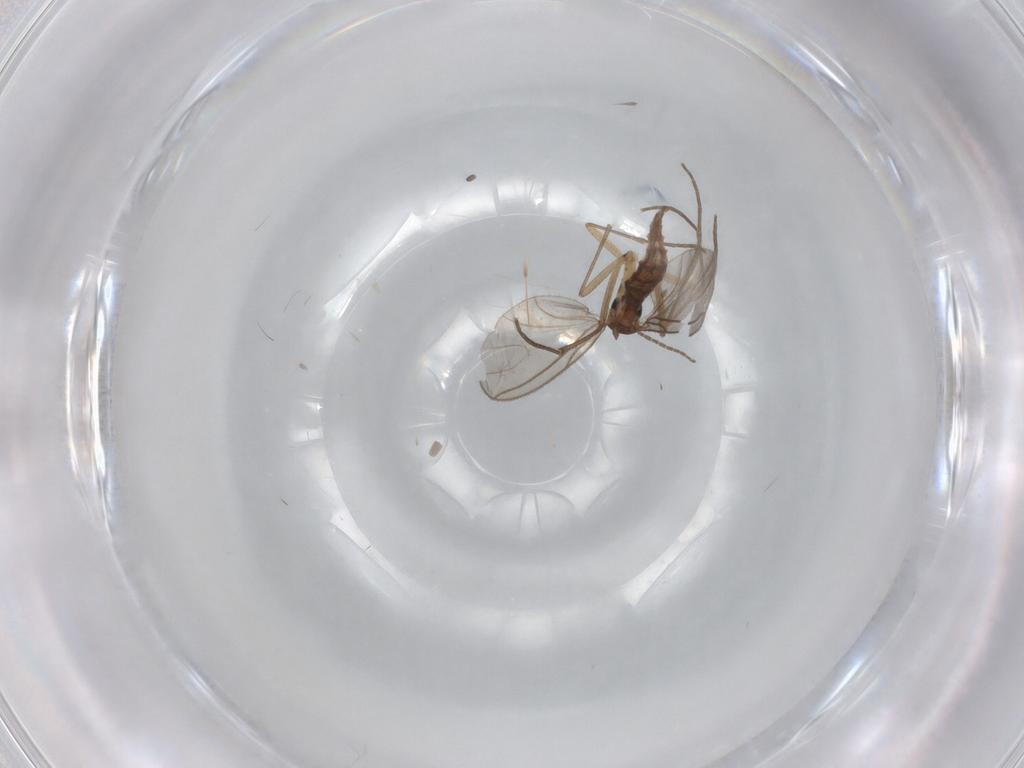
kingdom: Animalia
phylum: Arthropoda
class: Insecta
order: Diptera
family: Sciaridae
